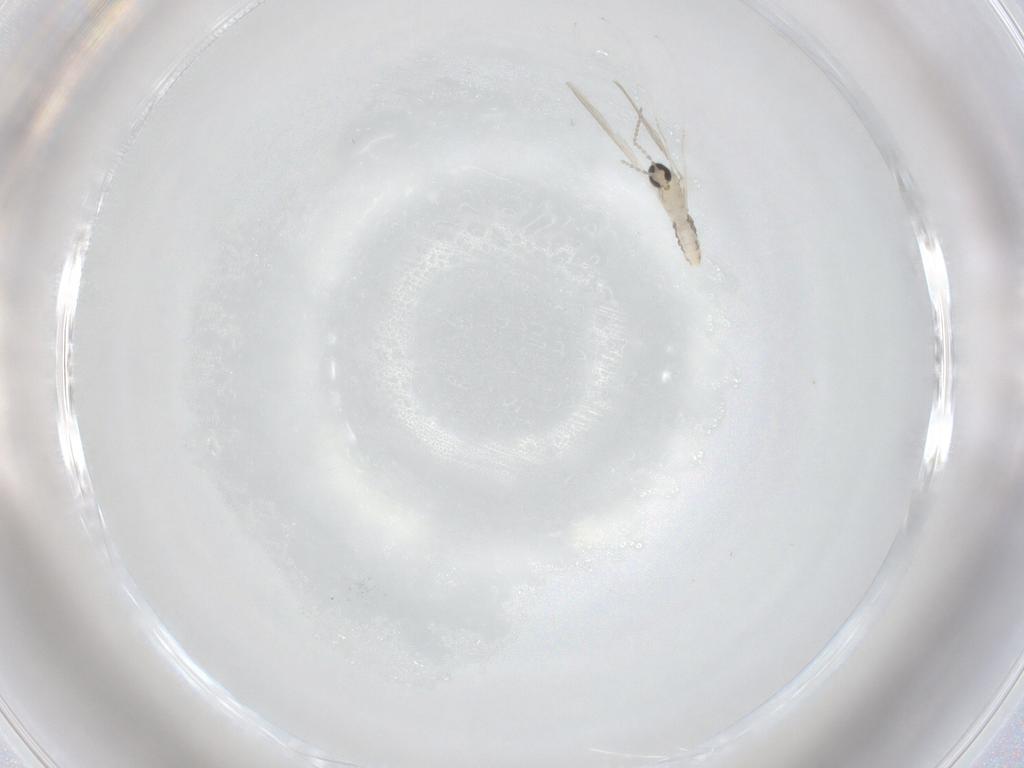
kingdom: Animalia
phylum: Arthropoda
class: Insecta
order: Diptera
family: Cecidomyiidae
